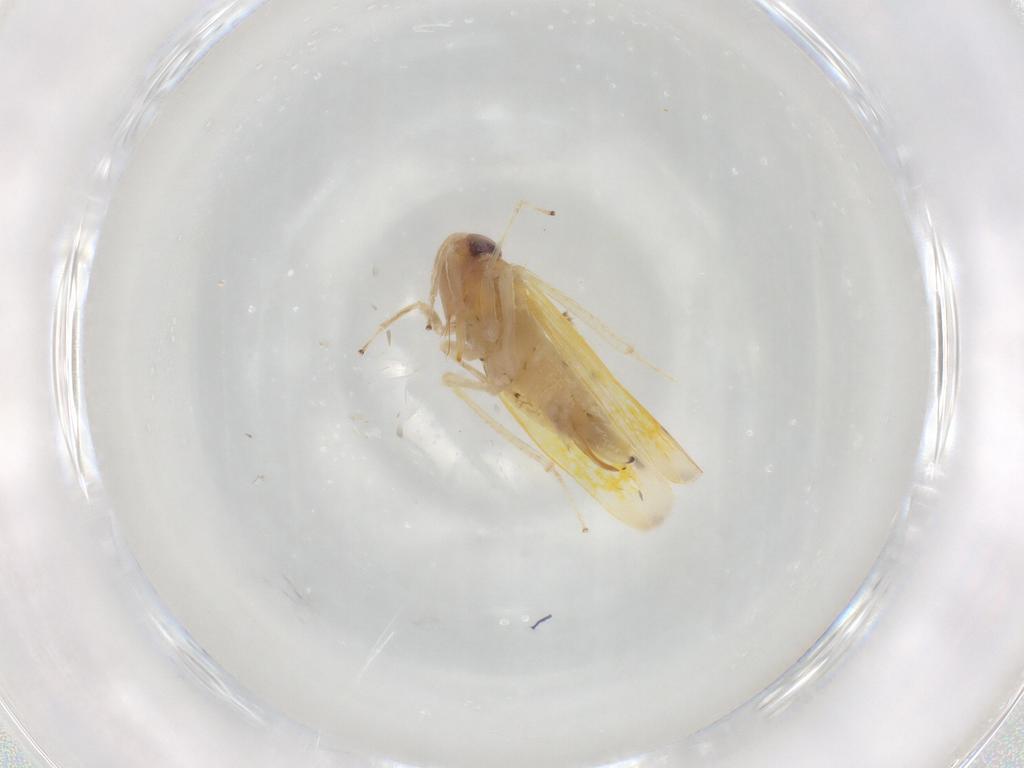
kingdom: Animalia
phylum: Arthropoda
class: Insecta
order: Hemiptera
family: Cicadellidae
